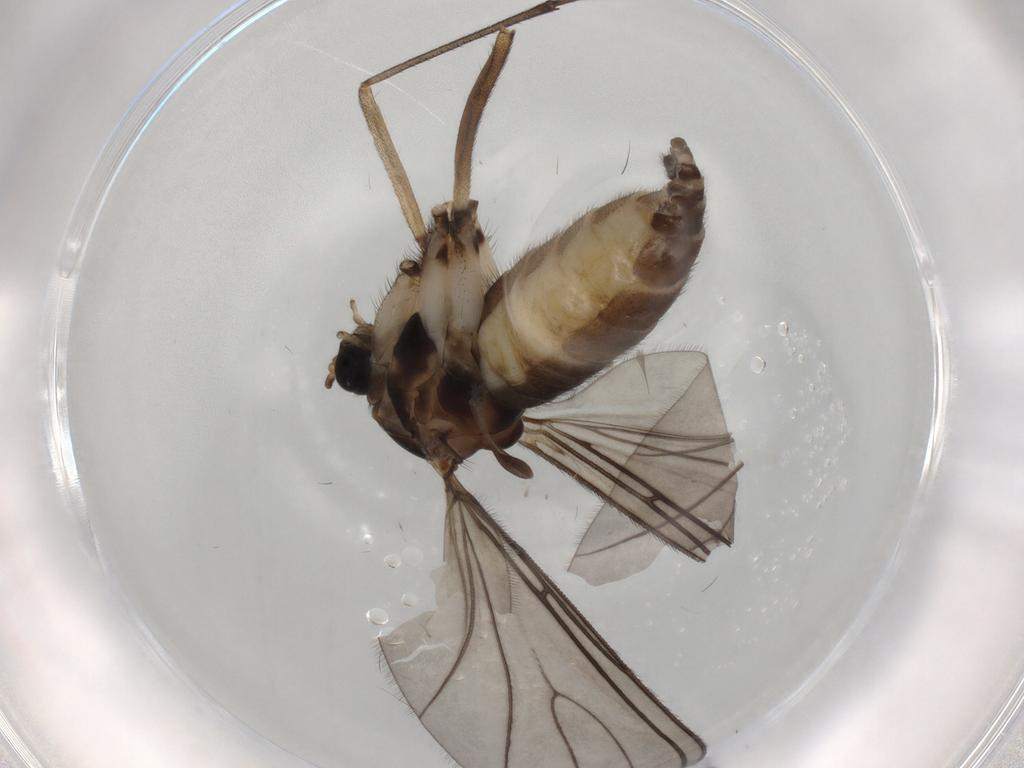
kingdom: Animalia
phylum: Arthropoda
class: Insecta
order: Diptera
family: Sciaridae
